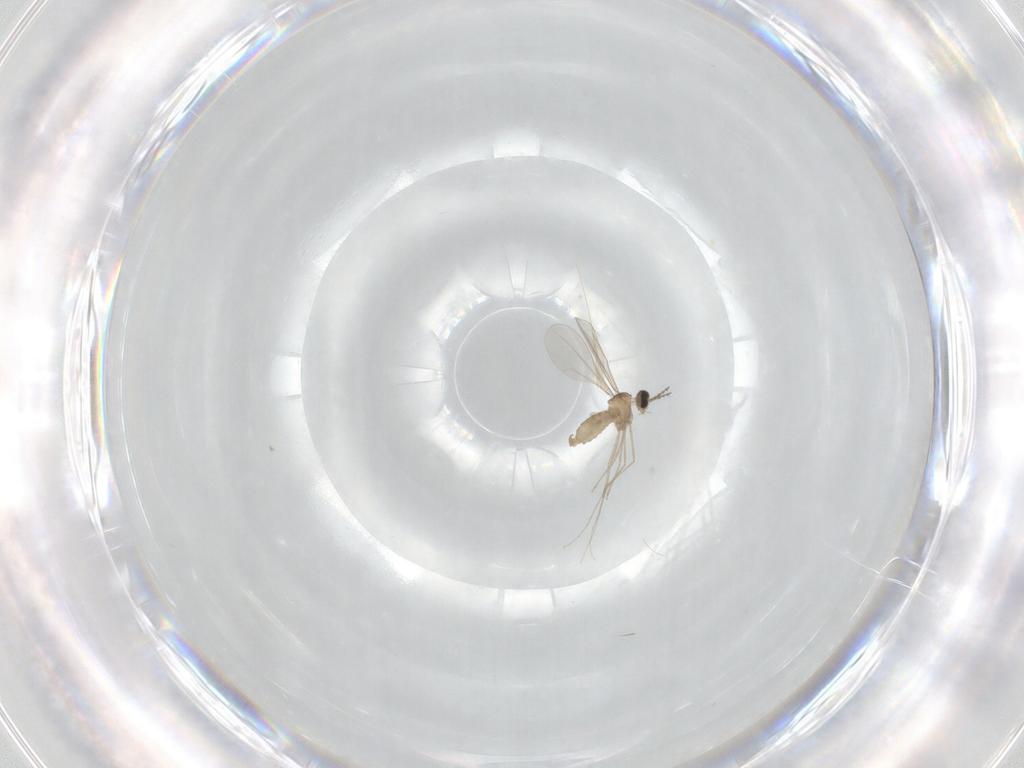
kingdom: Animalia
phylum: Arthropoda
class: Insecta
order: Diptera
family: Cecidomyiidae
